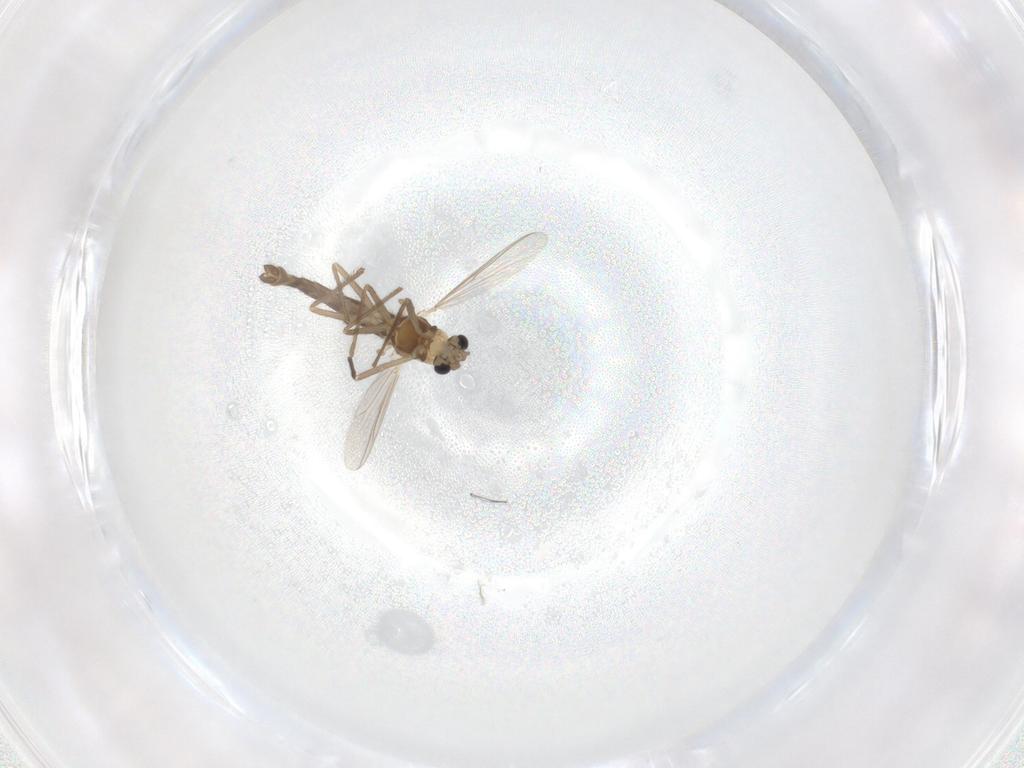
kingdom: Animalia
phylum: Arthropoda
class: Insecta
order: Diptera
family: Chironomidae
